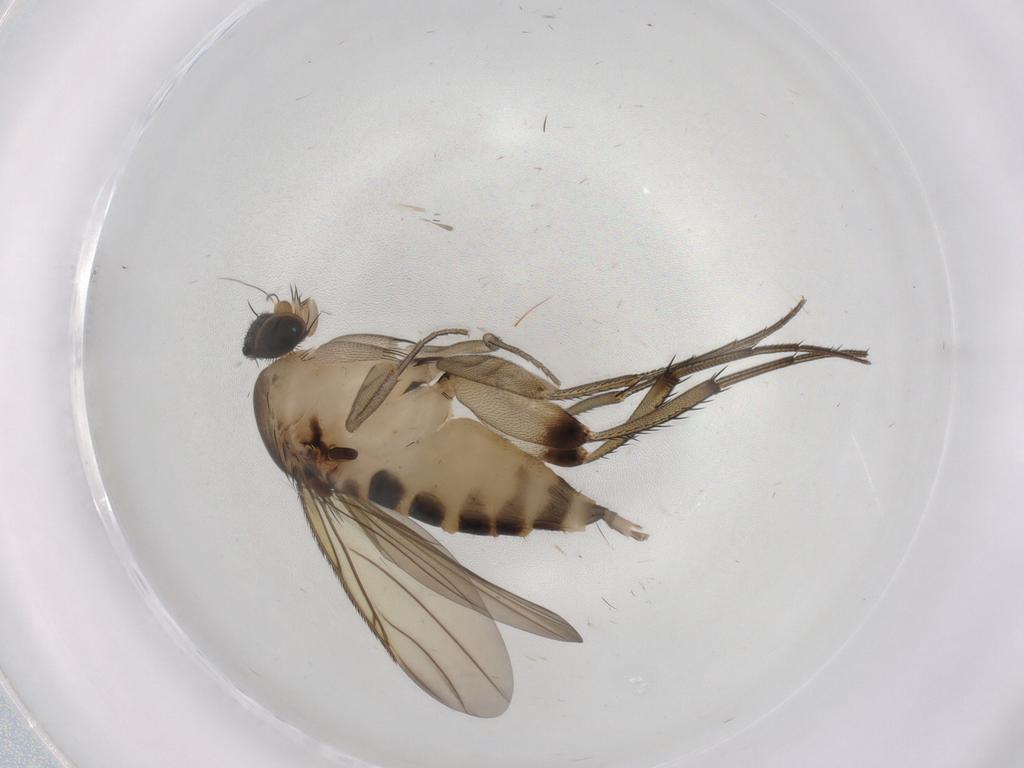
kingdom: Animalia
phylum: Arthropoda
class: Insecta
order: Diptera
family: Phoridae
